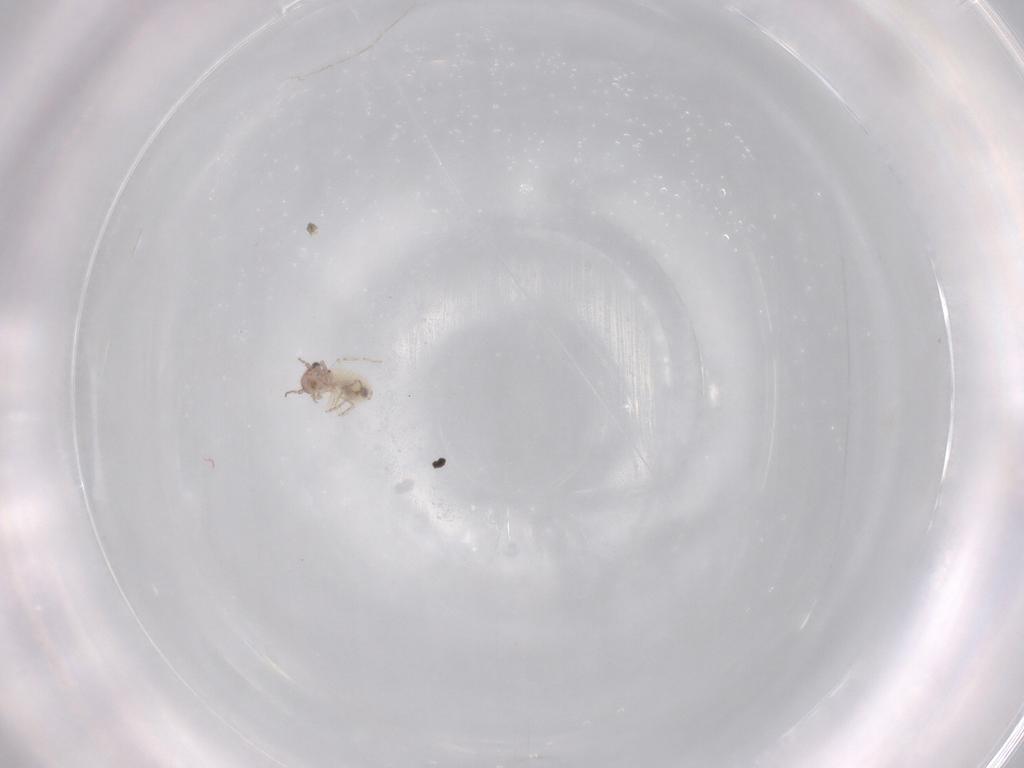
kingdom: Animalia
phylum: Arthropoda
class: Insecta
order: Psocodea
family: Lepidopsocidae
